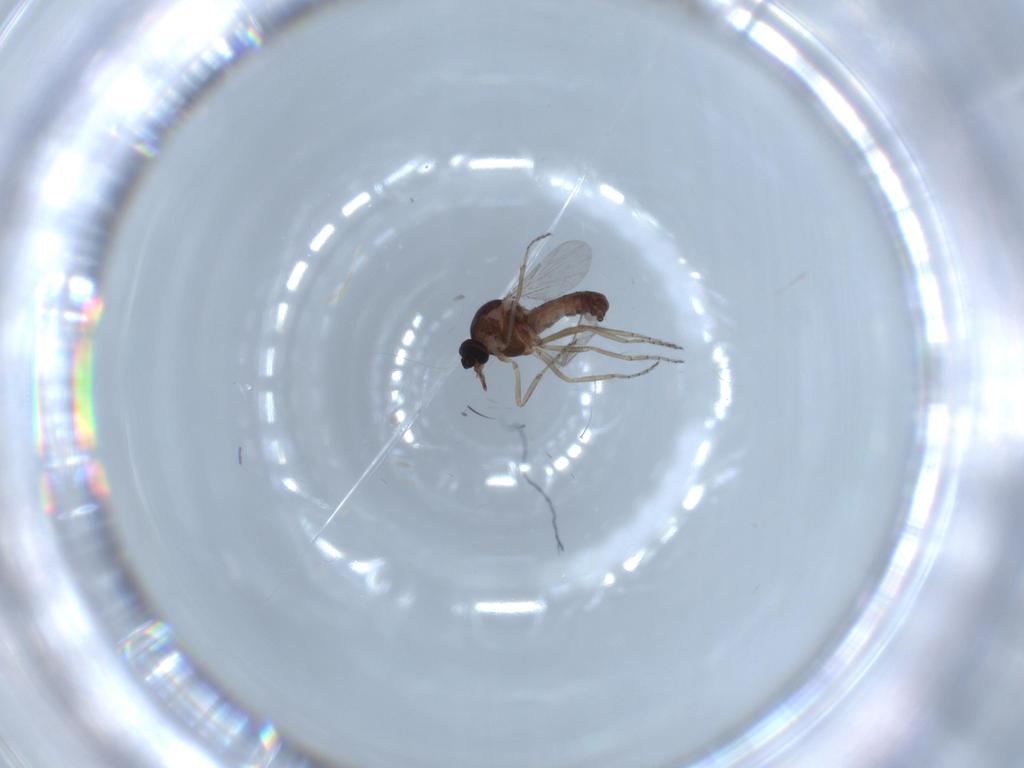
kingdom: Animalia
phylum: Arthropoda
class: Insecta
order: Diptera
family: Ceratopogonidae
